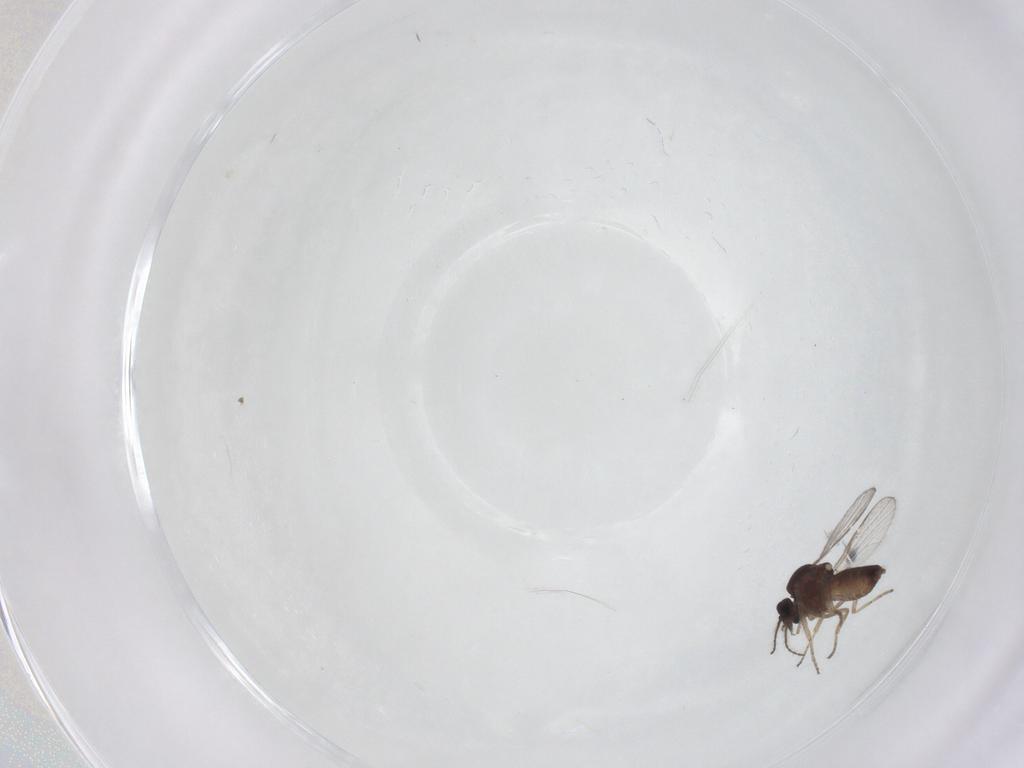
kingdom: Animalia
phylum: Arthropoda
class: Insecta
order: Diptera
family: Ceratopogonidae
